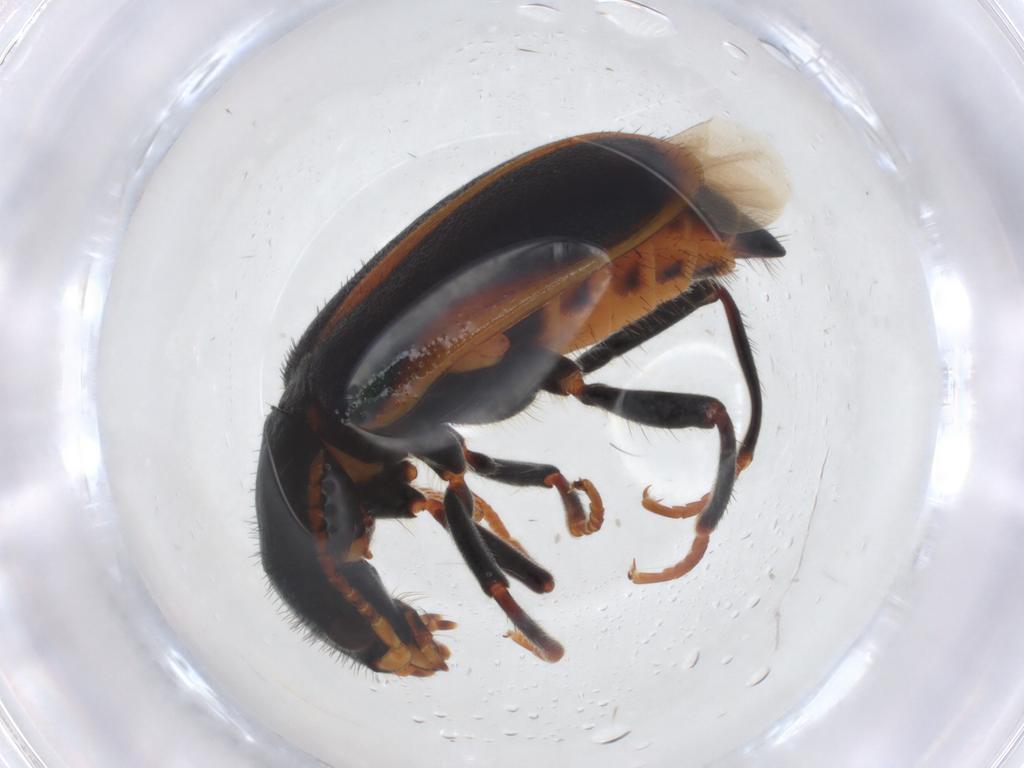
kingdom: Animalia
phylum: Arthropoda
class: Insecta
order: Coleoptera
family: Melyridae
